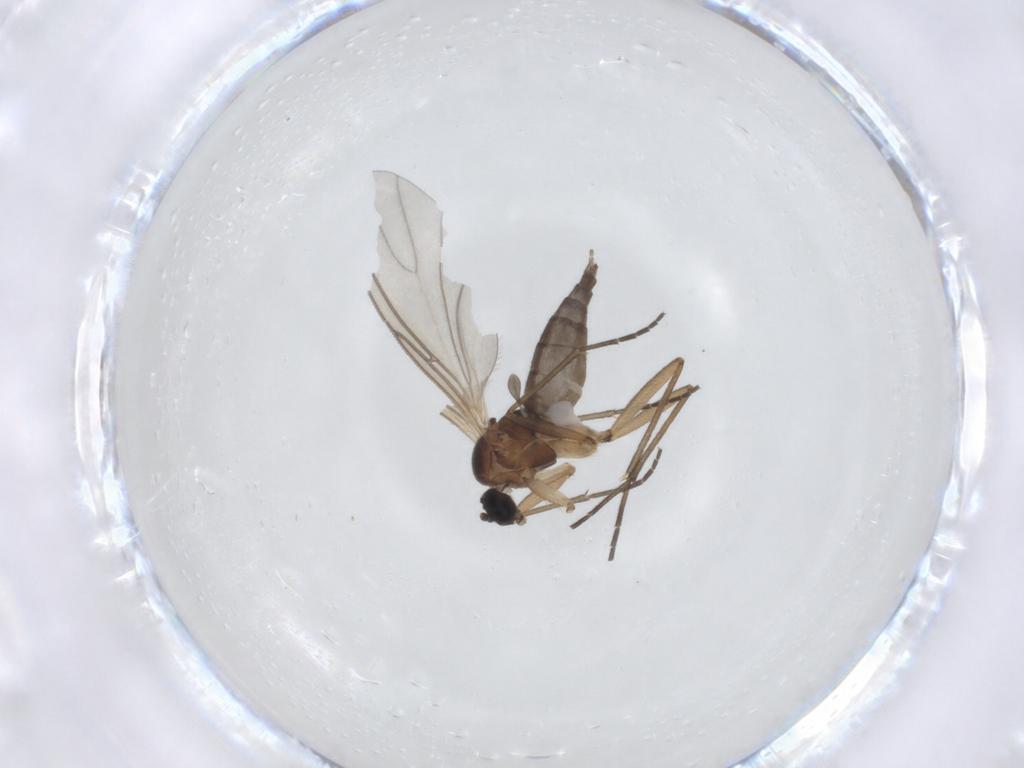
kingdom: Animalia
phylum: Arthropoda
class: Insecta
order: Diptera
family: Sciaridae
